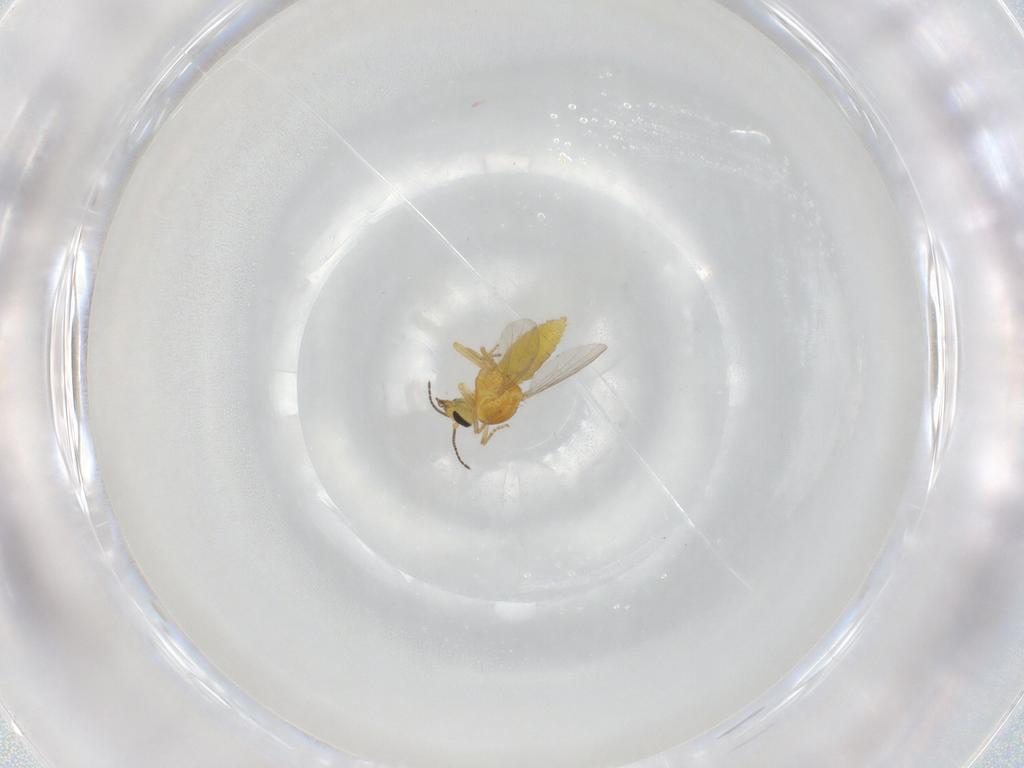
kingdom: Animalia
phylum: Arthropoda
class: Insecta
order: Diptera
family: Ceratopogonidae
